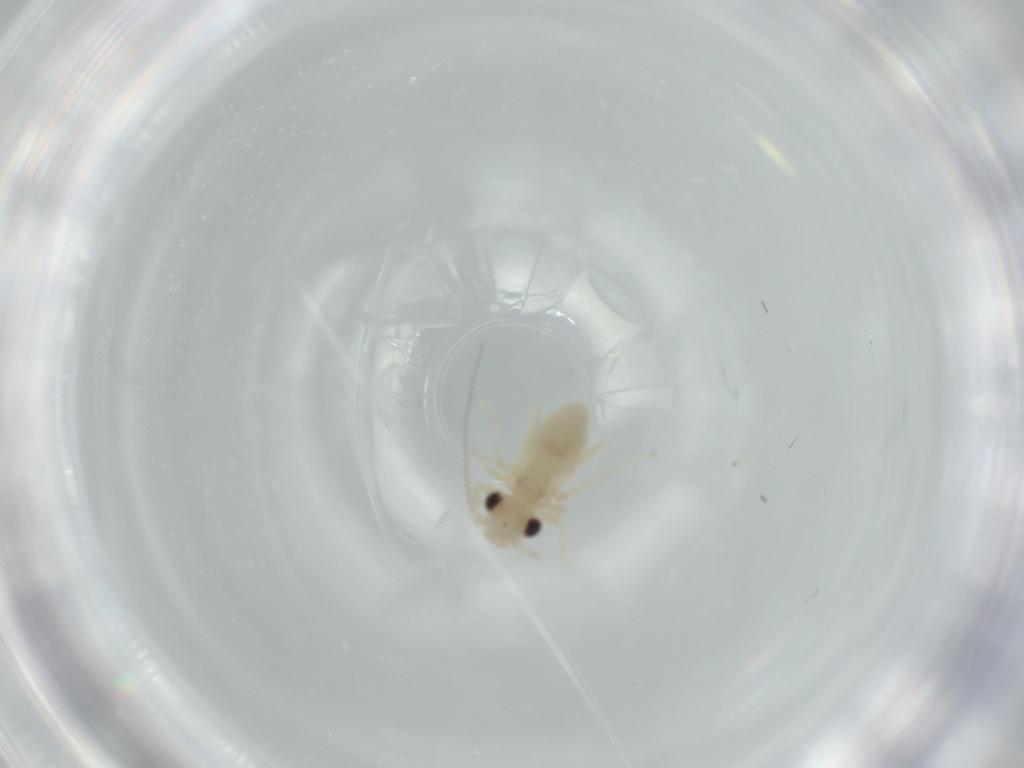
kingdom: Animalia
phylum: Arthropoda
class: Insecta
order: Psocodea
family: Caeciliusidae
